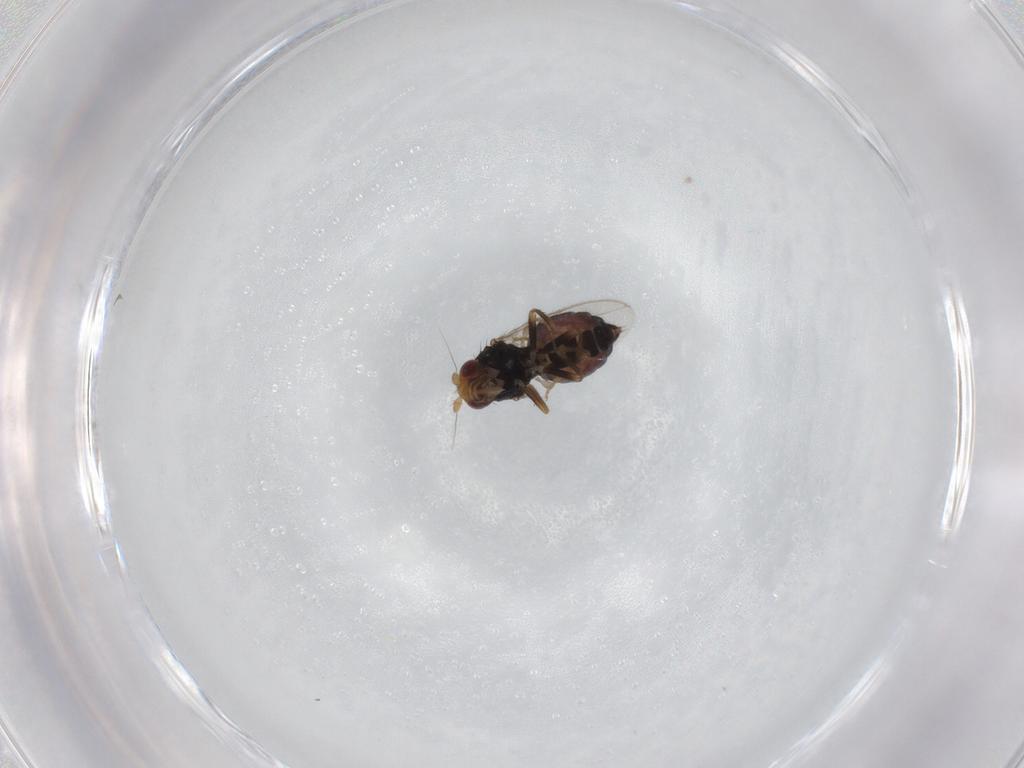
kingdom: Animalia
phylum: Arthropoda
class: Insecta
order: Diptera
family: Sphaeroceridae
